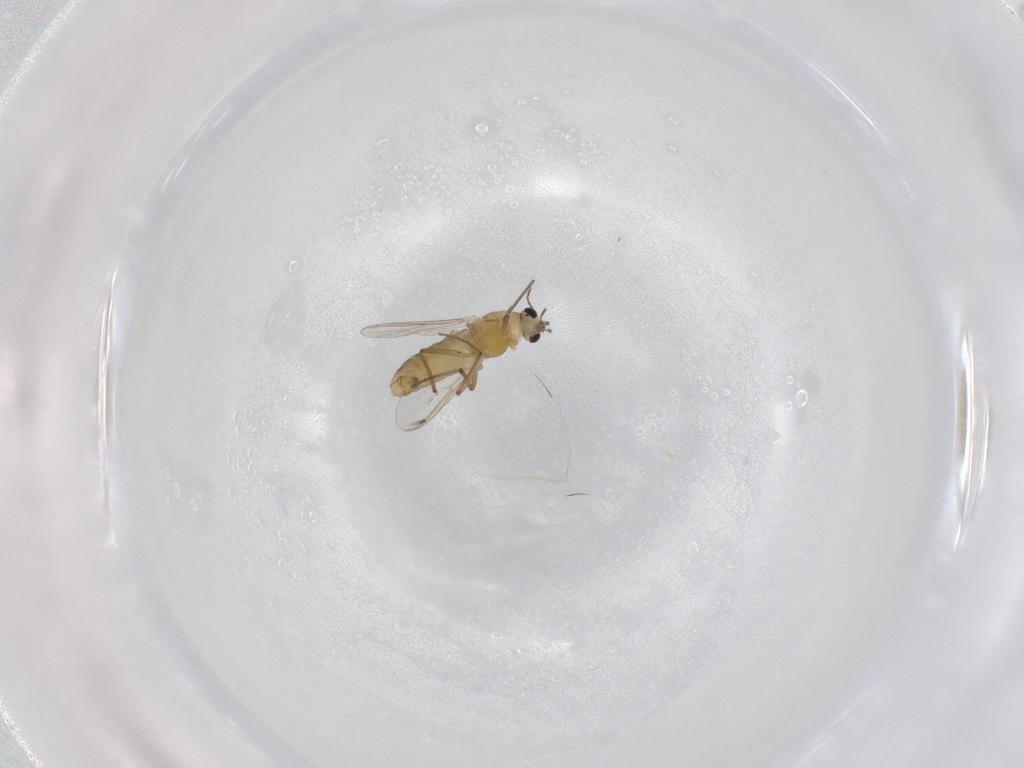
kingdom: Animalia
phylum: Arthropoda
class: Insecta
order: Diptera
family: Chironomidae
